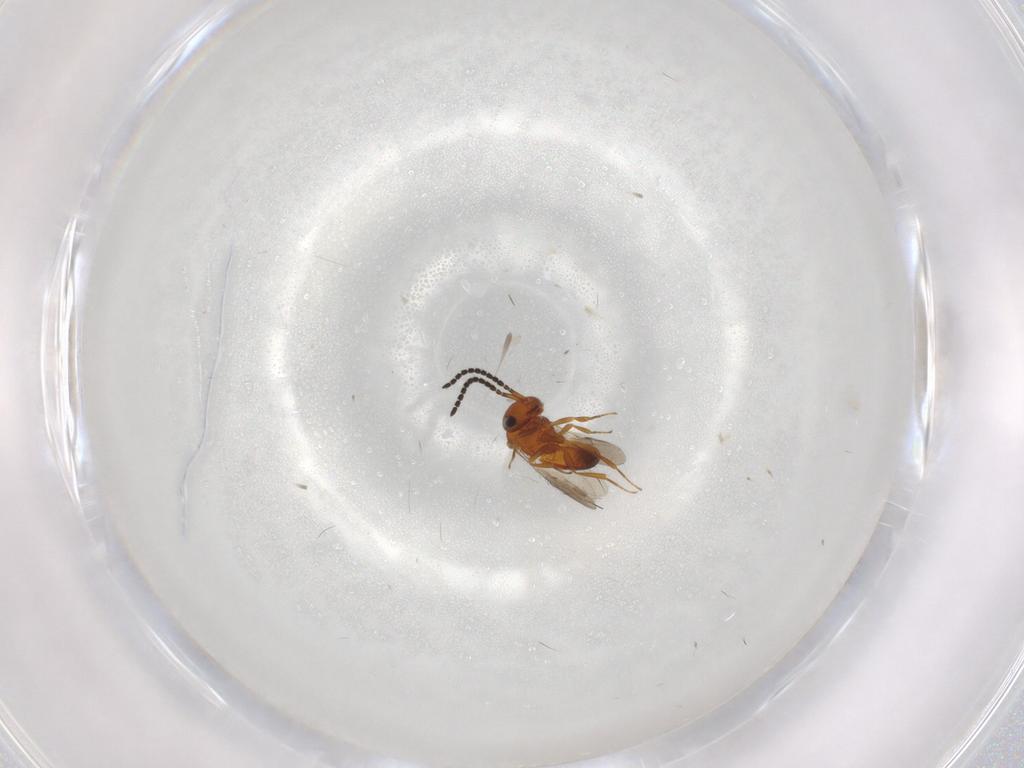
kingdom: Animalia
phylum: Arthropoda
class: Insecta
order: Hymenoptera
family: Scelionidae
